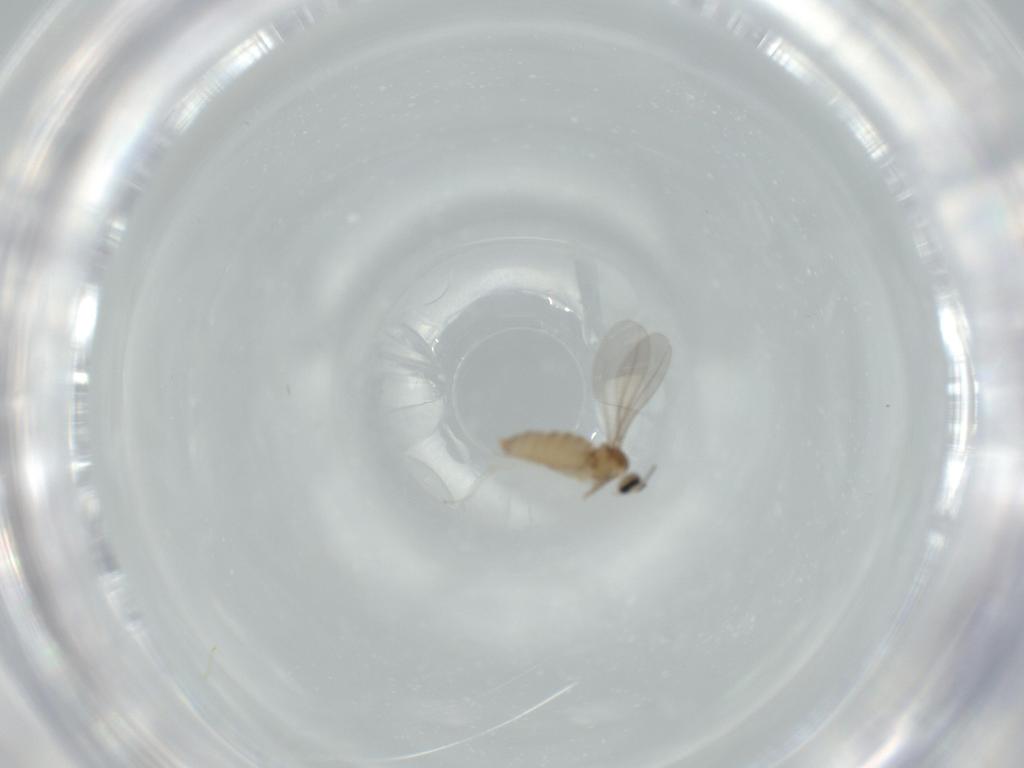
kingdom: Animalia
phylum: Arthropoda
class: Insecta
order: Diptera
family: Cecidomyiidae
